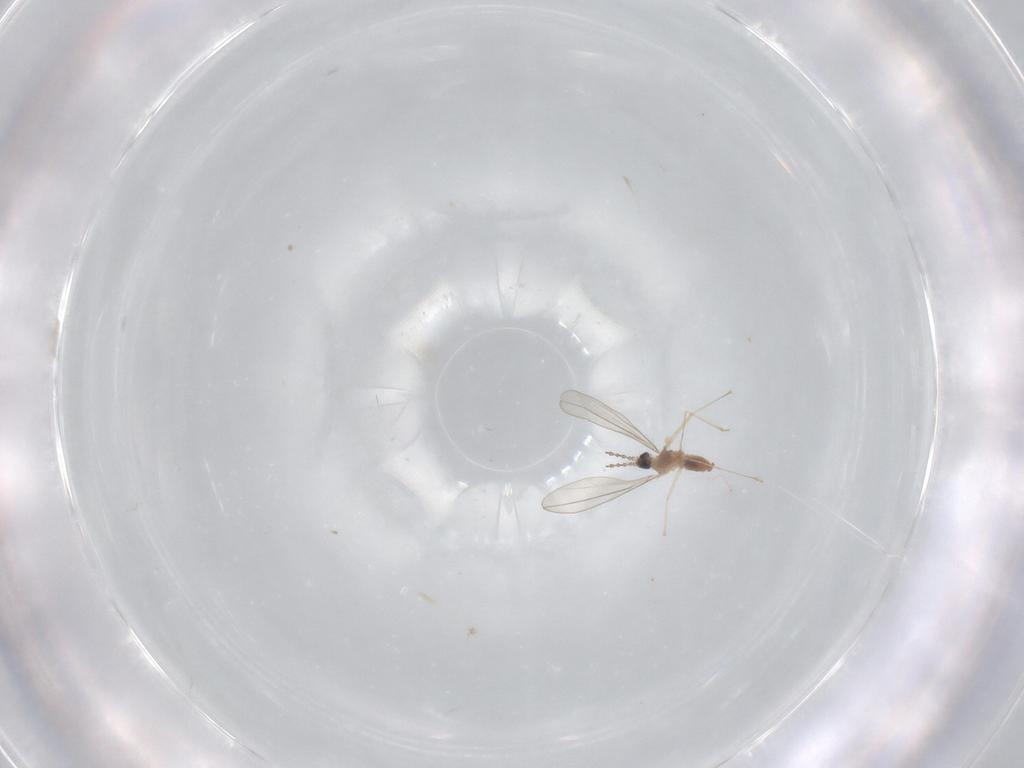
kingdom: Animalia
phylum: Arthropoda
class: Insecta
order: Diptera
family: Cecidomyiidae
